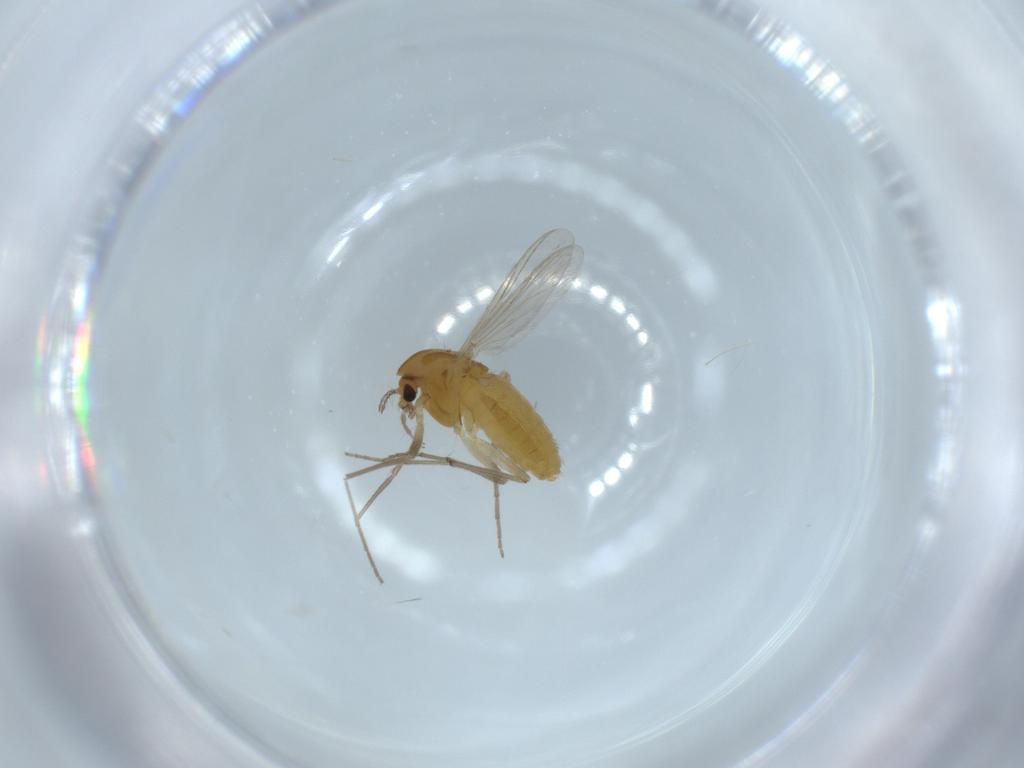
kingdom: Animalia
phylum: Arthropoda
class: Insecta
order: Diptera
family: Chironomidae
